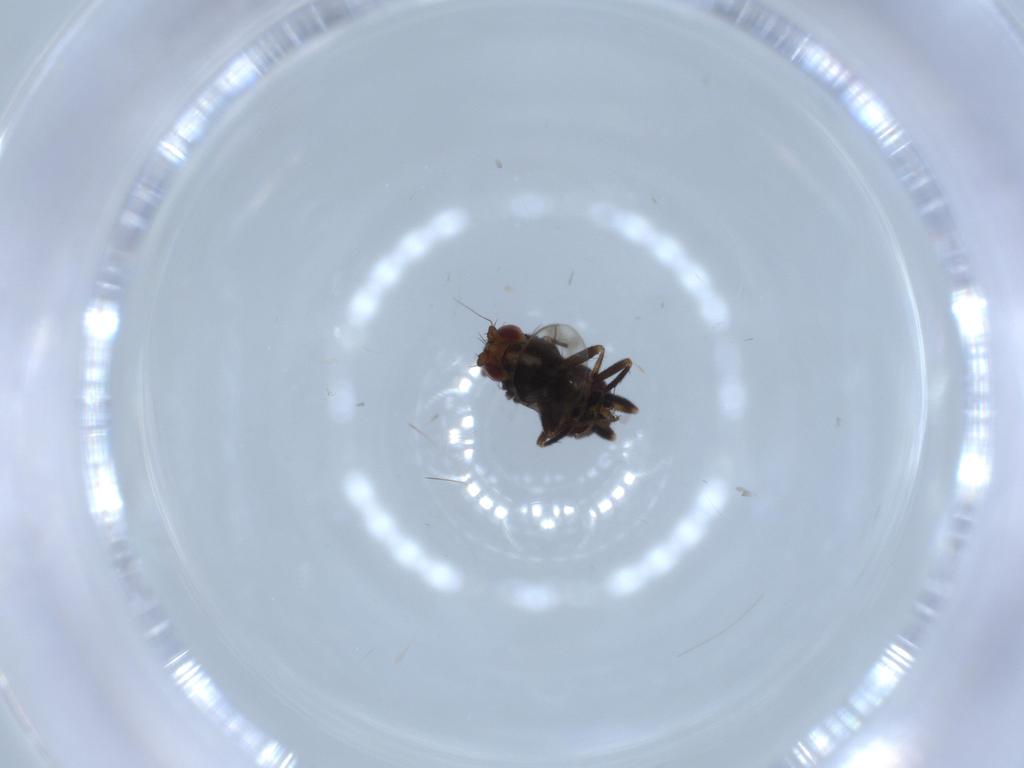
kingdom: Animalia
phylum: Arthropoda
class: Insecta
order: Diptera
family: Sphaeroceridae
